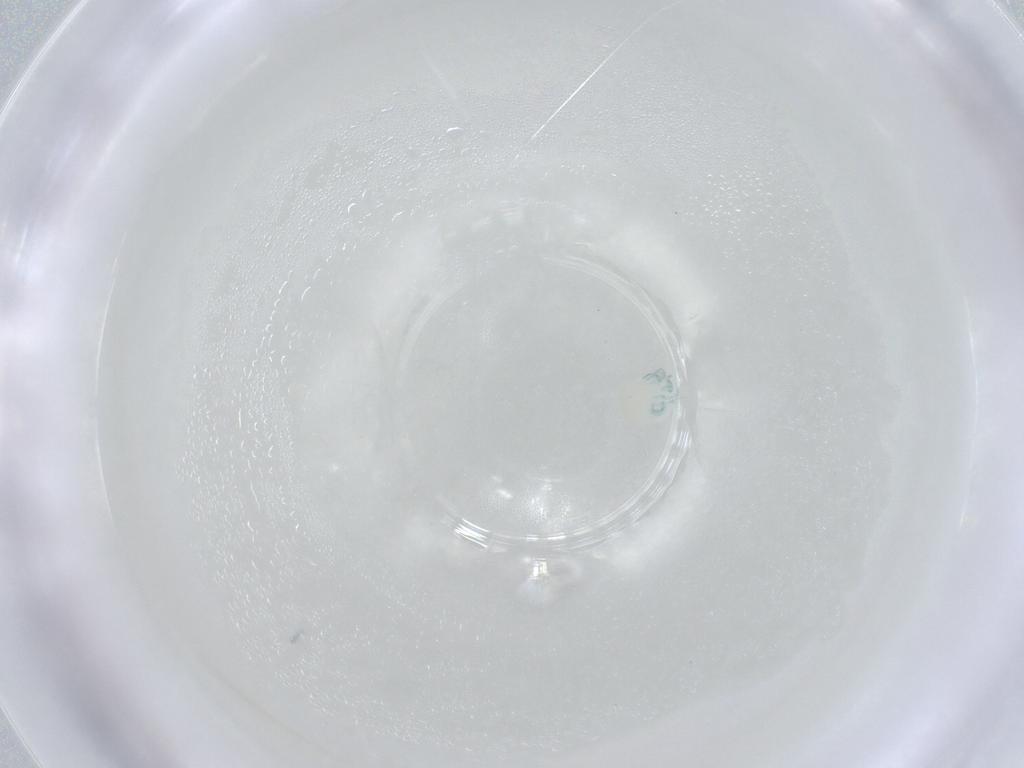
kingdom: Animalia
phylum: Arthropoda
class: Arachnida
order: Trombidiformes
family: Arrenuridae
